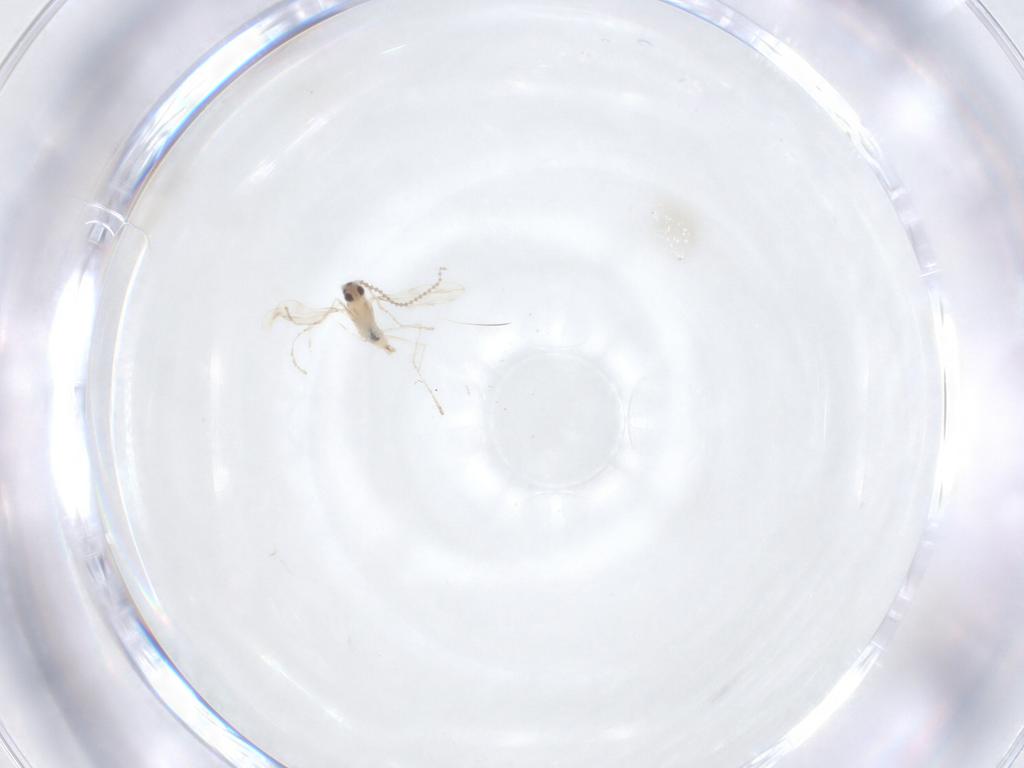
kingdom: Animalia
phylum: Arthropoda
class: Insecta
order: Diptera
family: Cecidomyiidae
